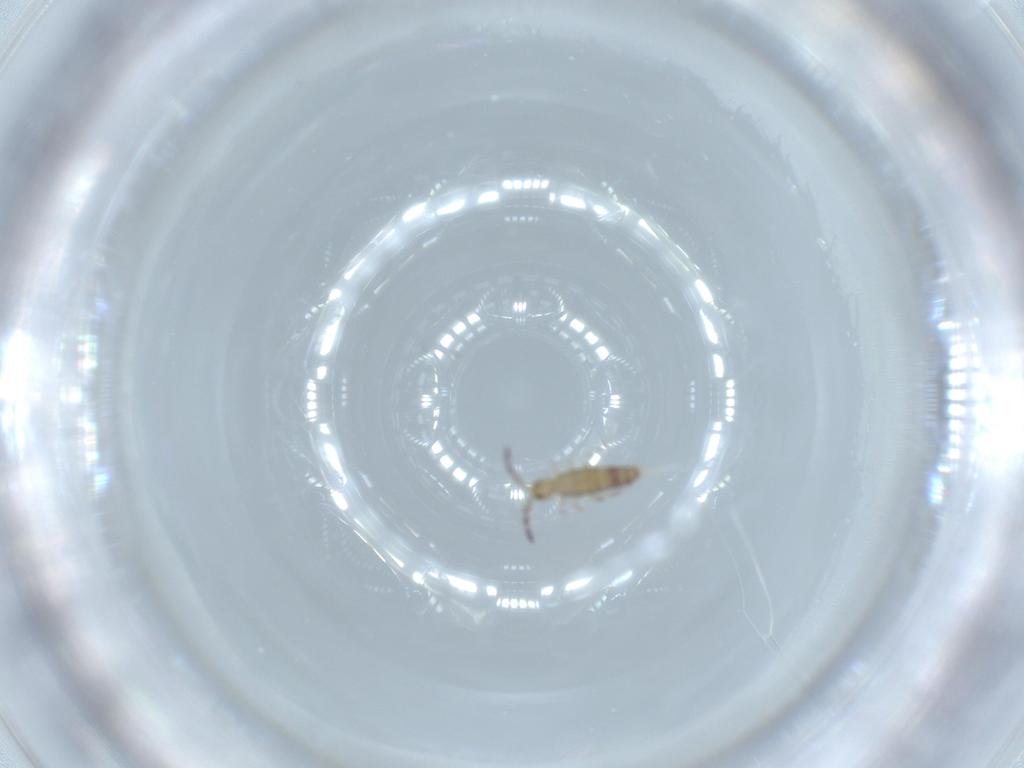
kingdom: Animalia
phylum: Arthropoda
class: Collembola
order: Entomobryomorpha
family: Entomobryidae
